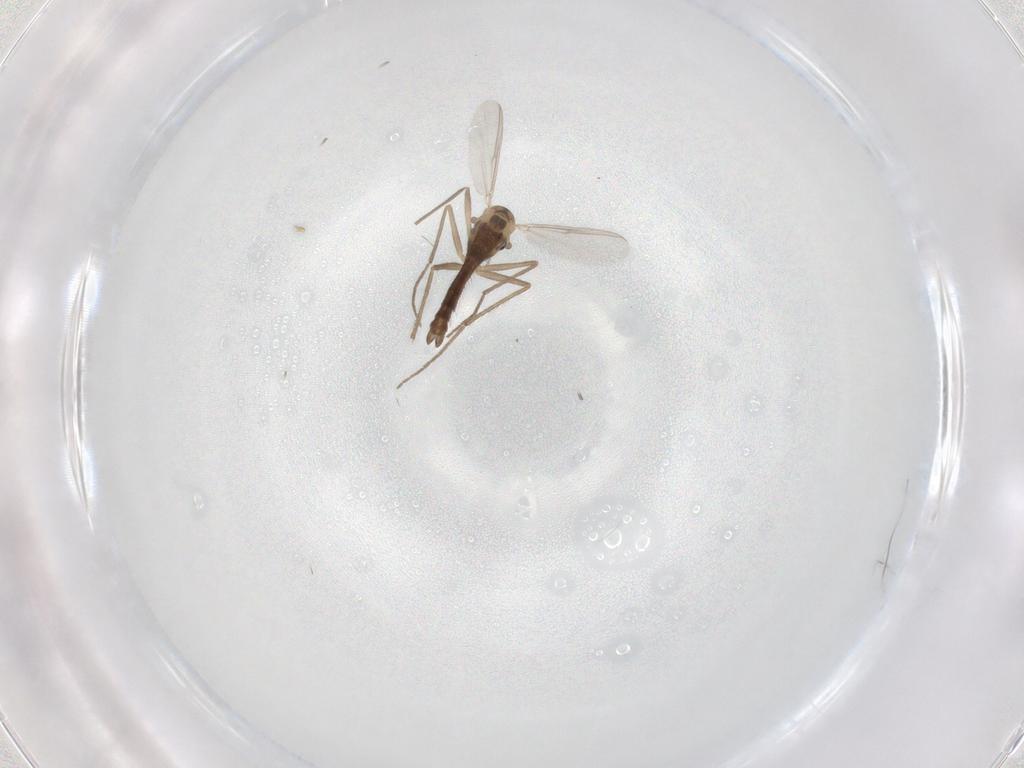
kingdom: Animalia
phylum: Arthropoda
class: Insecta
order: Diptera
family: Chironomidae
